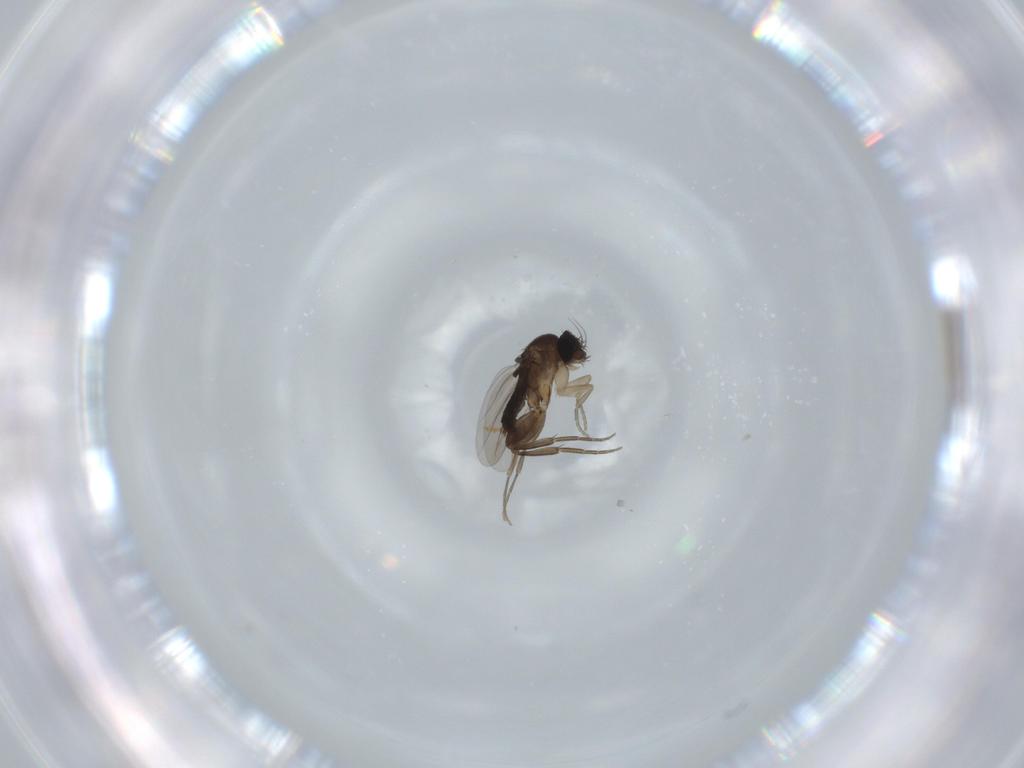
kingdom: Animalia
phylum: Arthropoda
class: Insecta
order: Diptera
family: Phoridae
